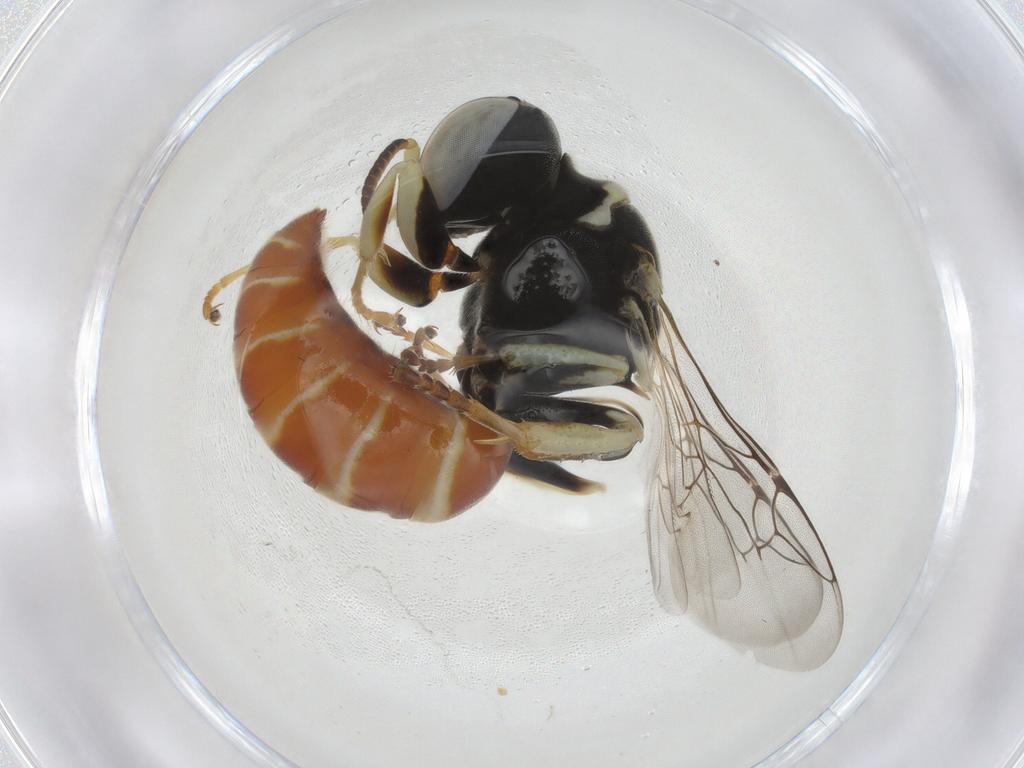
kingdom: Animalia
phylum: Arthropoda
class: Insecta
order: Hymenoptera
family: Crabronidae
